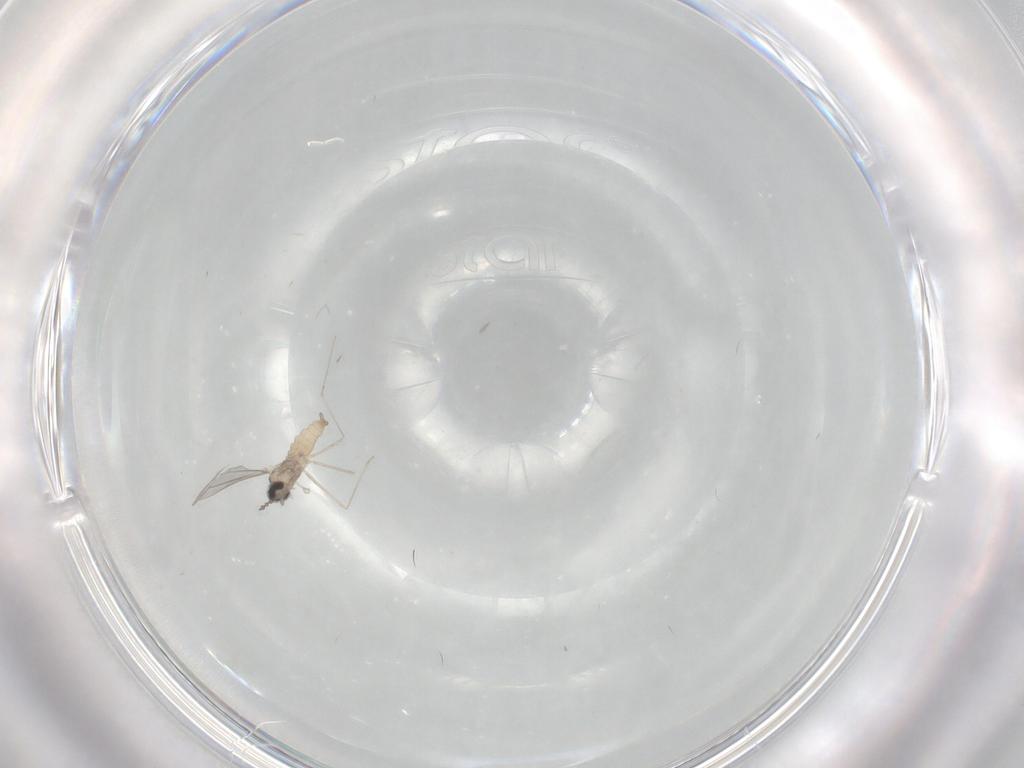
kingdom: Animalia
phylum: Arthropoda
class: Insecta
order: Diptera
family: Cecidomyiidae
